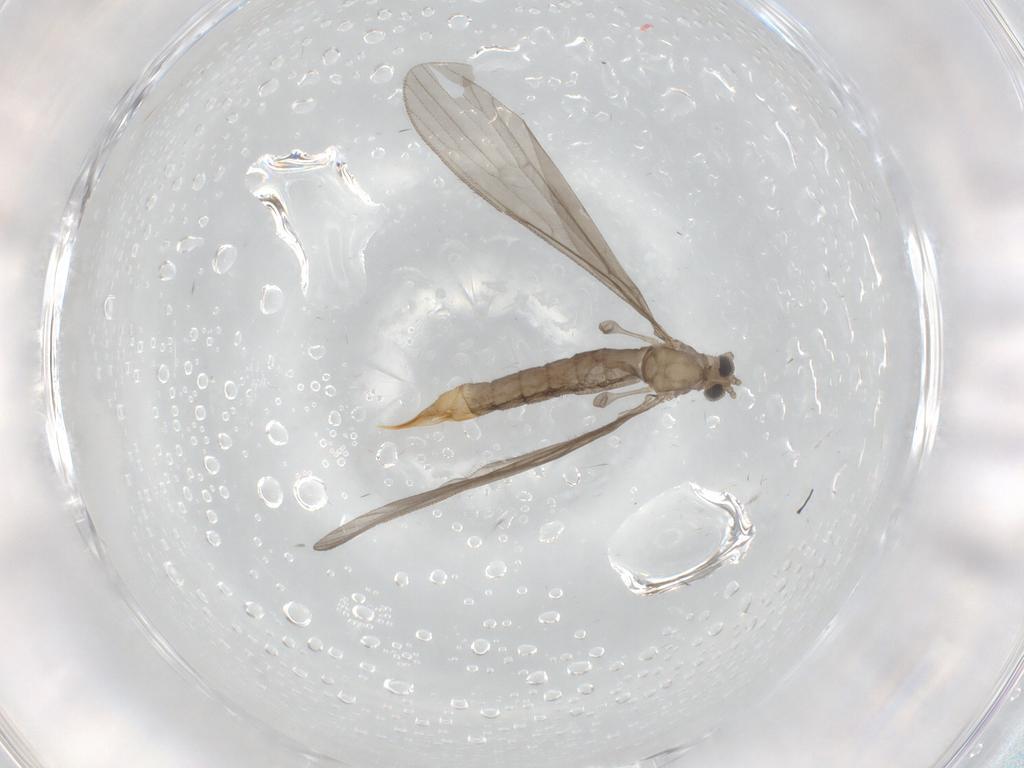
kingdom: Animalia
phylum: Arthropoda
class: Insecta
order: Diptera
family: Limoniidae
